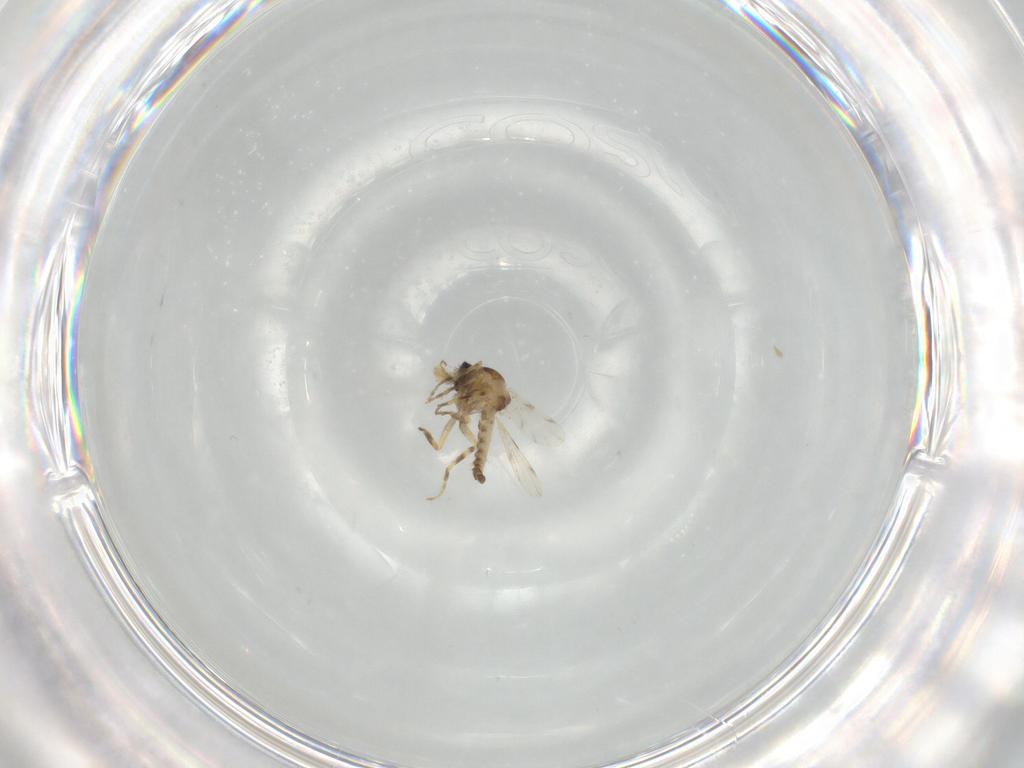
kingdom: Animalia
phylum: Arthropoda
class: Insecta
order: Diptera
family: Ceratopogonidae
